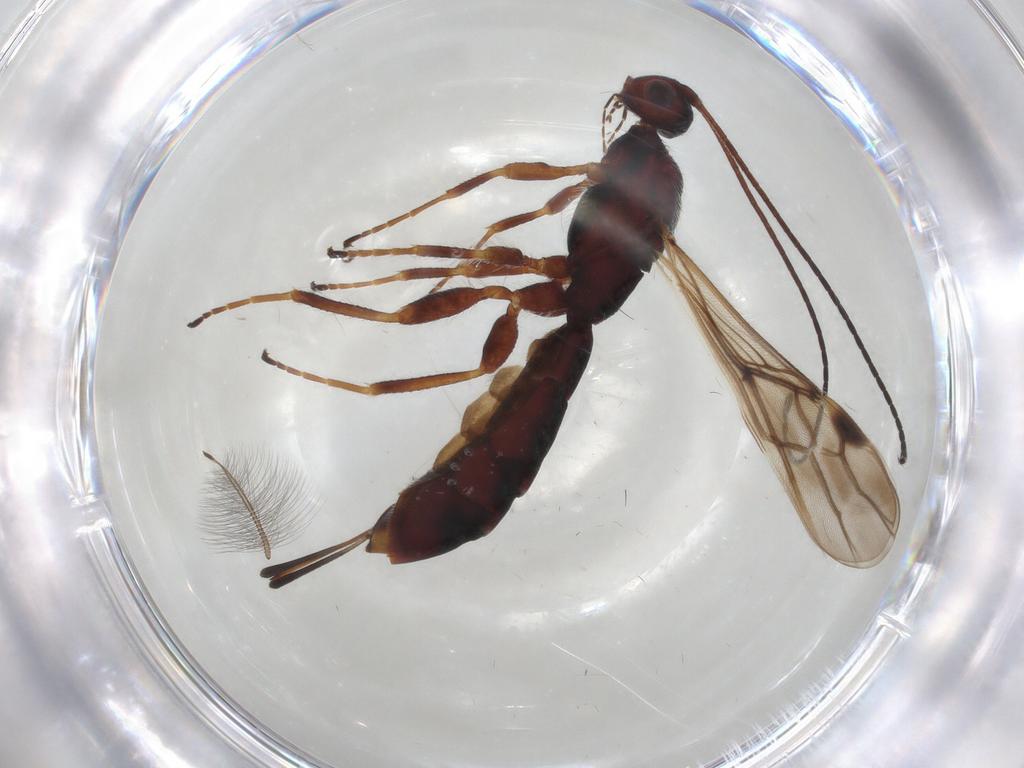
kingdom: Animalia
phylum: Arthropoda
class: Insecta
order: Hymenoptera
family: Braconidae
